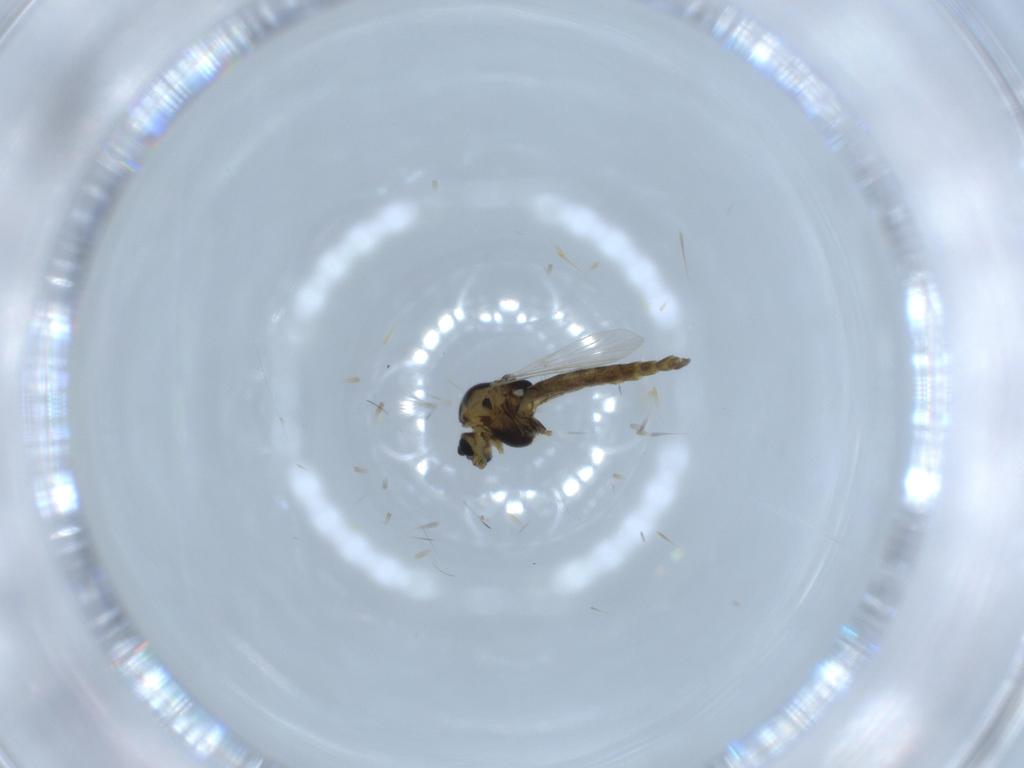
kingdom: Animalia
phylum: Arthropoda
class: Insecta
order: Diptera
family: Chironomidae
